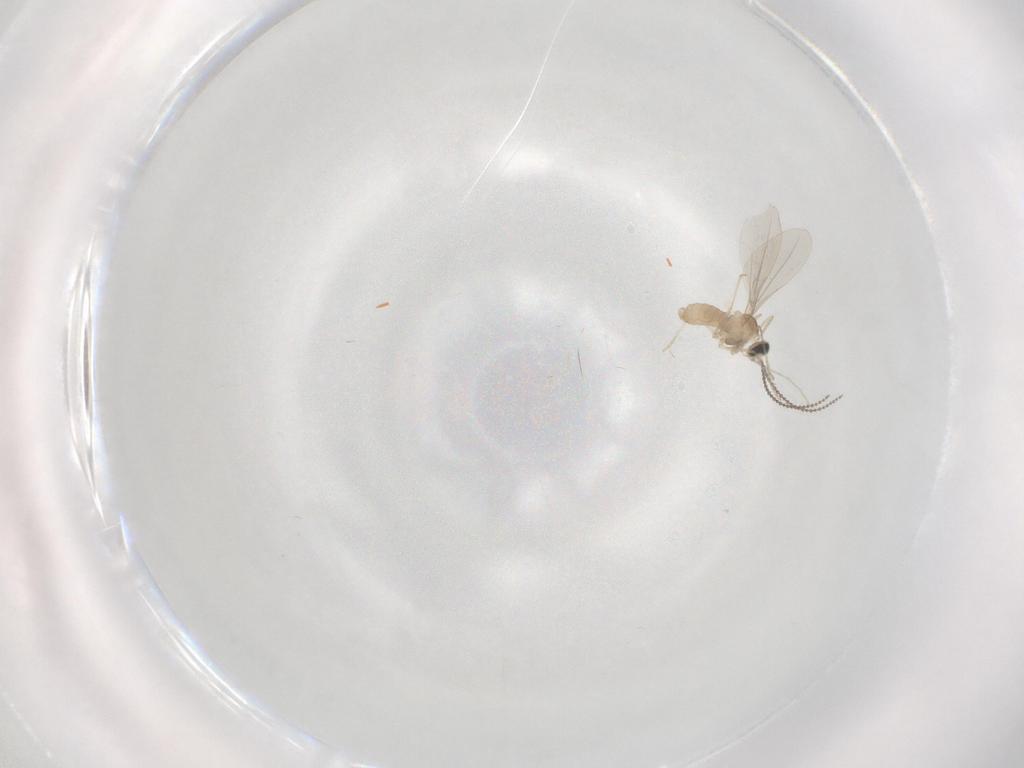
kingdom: Animalia
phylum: Arthropoda
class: Insecta
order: Diptera
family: Cecidomyiidae
